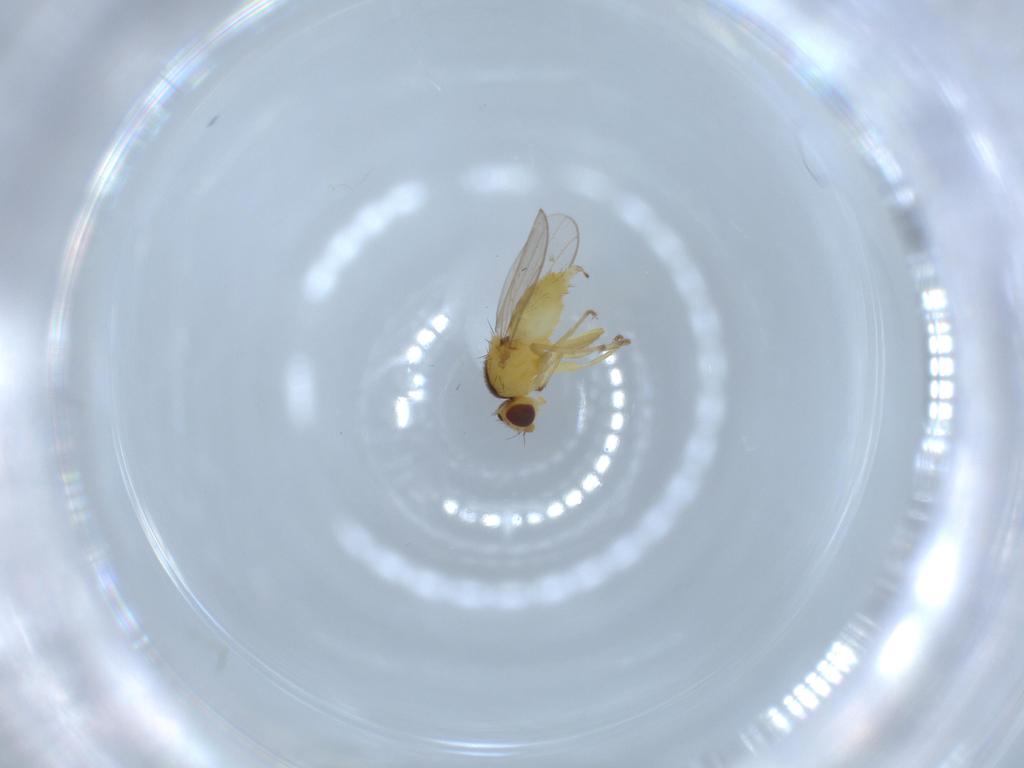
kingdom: Animalia
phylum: Arthropoda
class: Insecta
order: Diptera
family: Chloropidae
